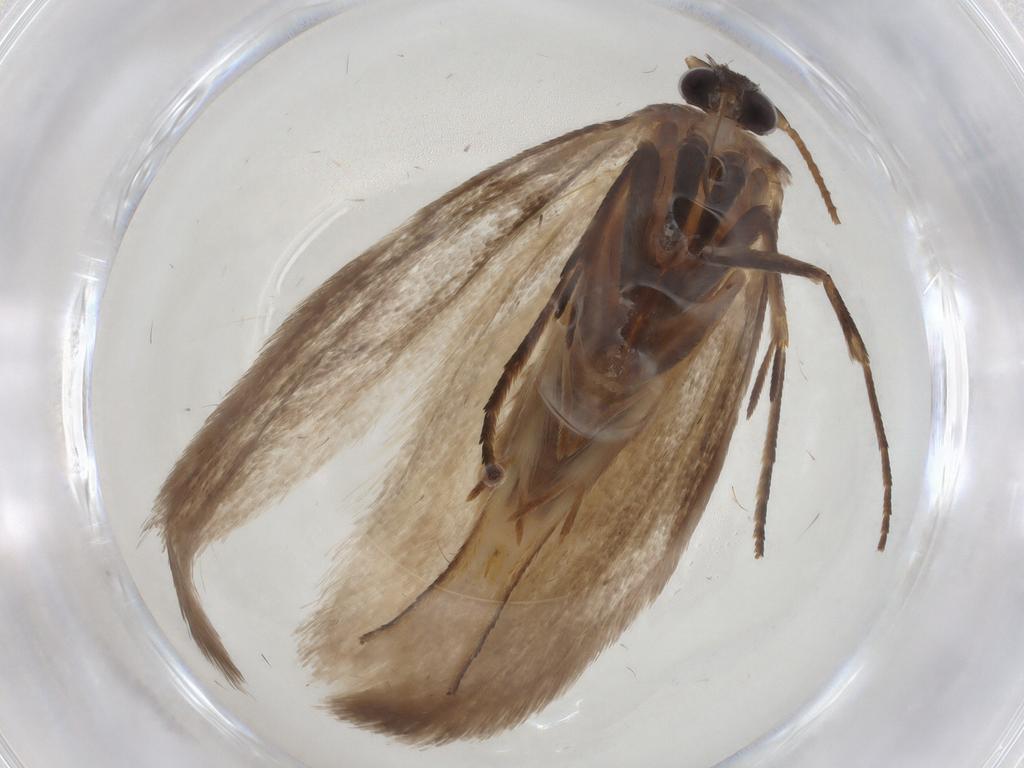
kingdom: Animalia
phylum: Arthropoda
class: Insecta
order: Lepidoptera
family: Roeslerstammiidae
